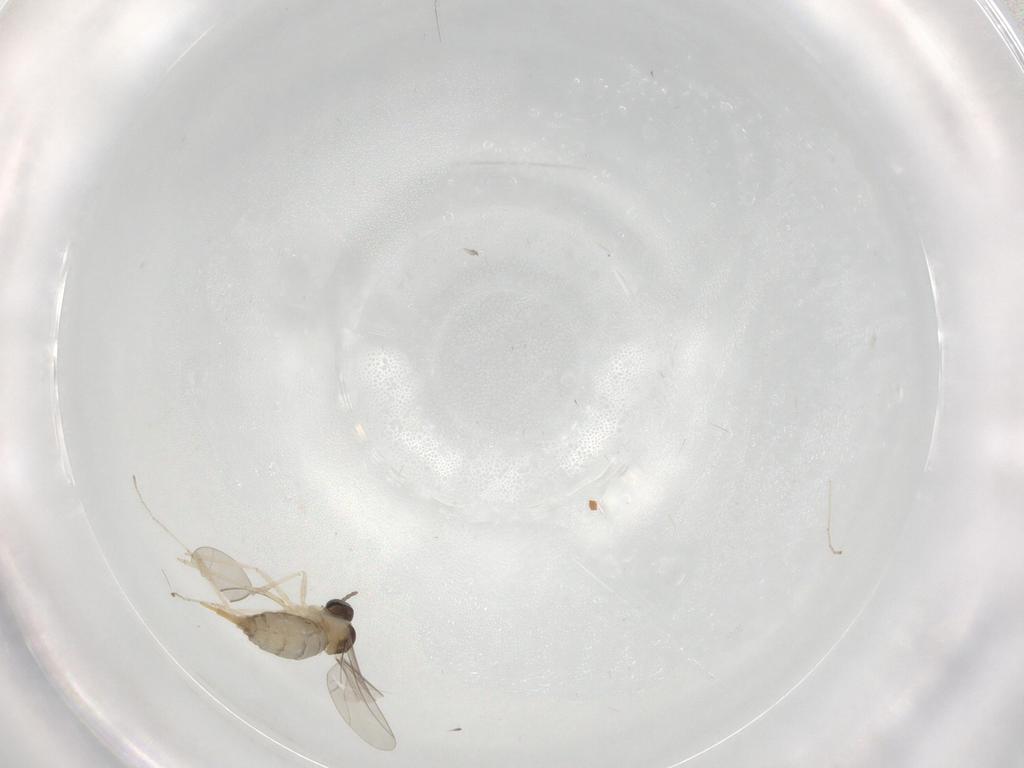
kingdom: Animalia
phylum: Arthropoda
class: Insecta
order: Diptera
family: Cecidomyiidae
